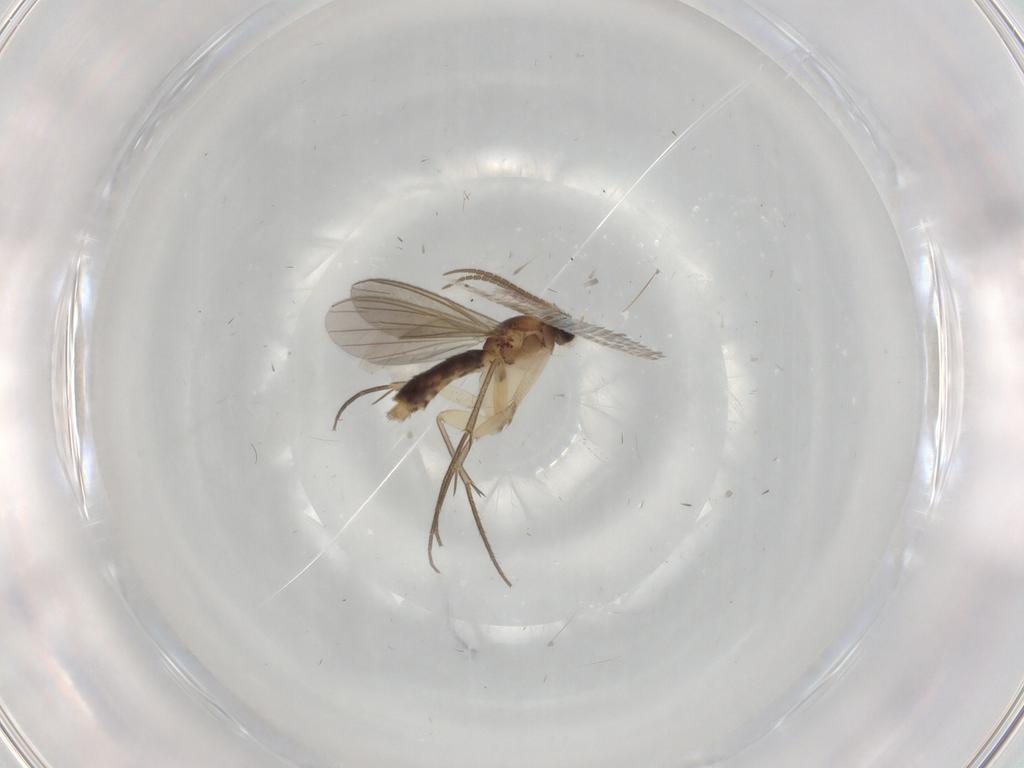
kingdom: Animalia
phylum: Arthropoda
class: Insecta
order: Diptera
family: Mycetophilidae
